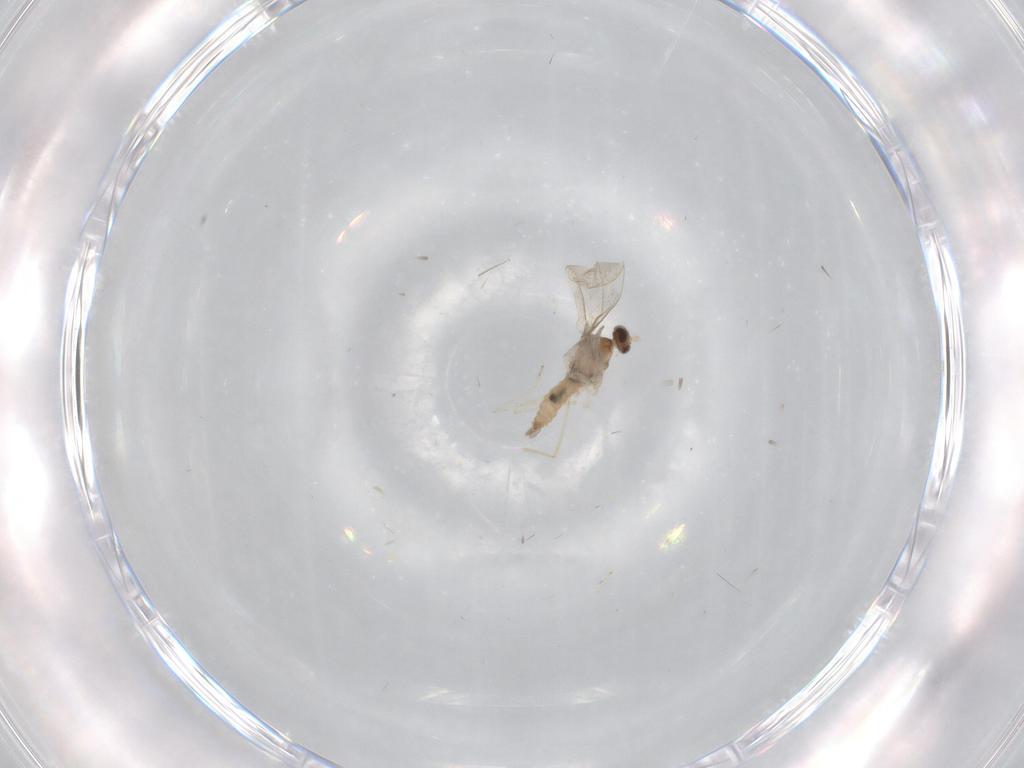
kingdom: Animalia
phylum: Arthropoda
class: Insecta
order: Diptera
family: Cecidomyiidae
